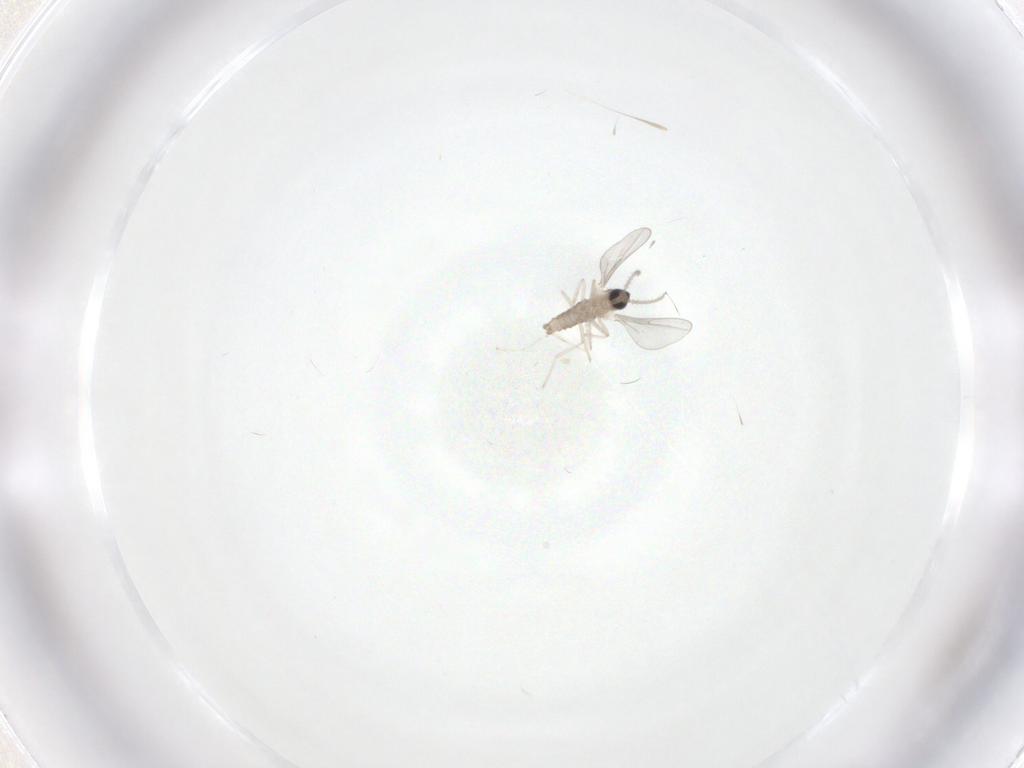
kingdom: Animalia
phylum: Arthropoda
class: Insecta
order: Diptera
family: Cecidomyiidae
